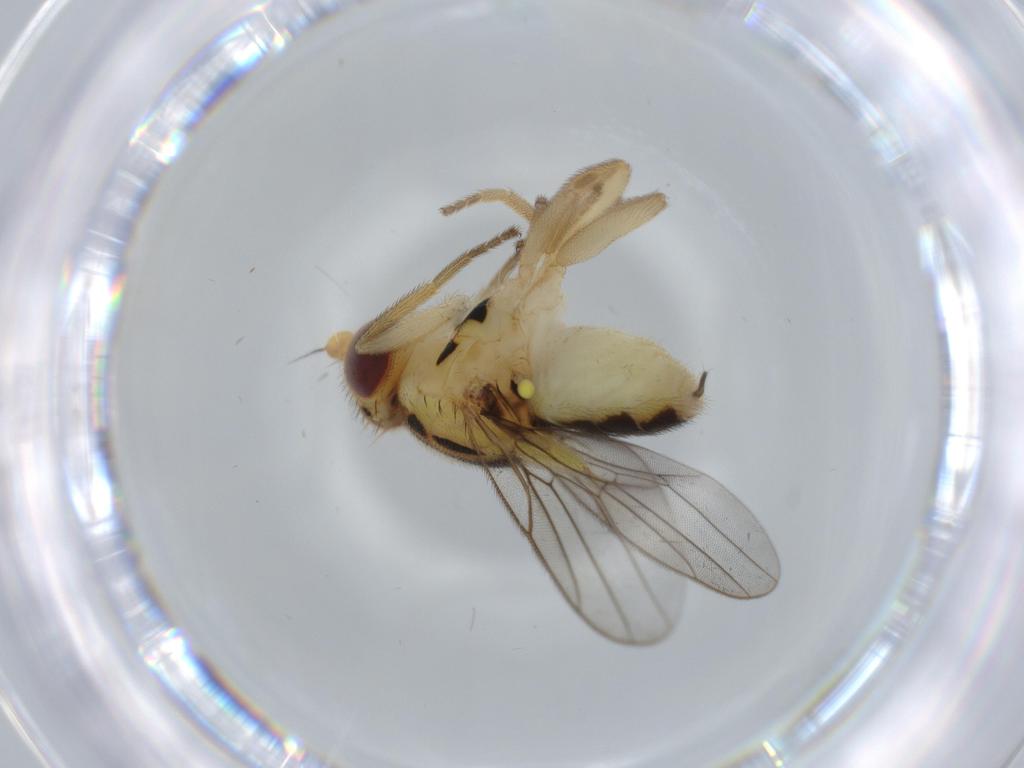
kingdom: Animalia
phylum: Arthropoda
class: Insecta
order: Diptera
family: Chloropidae
